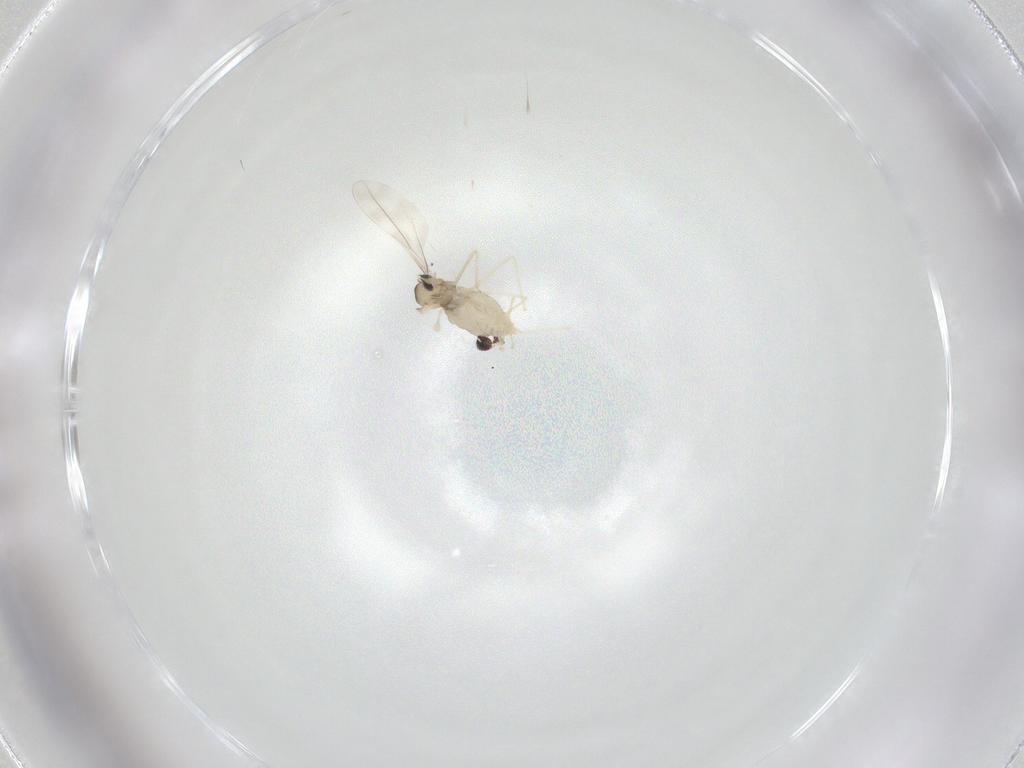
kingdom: Animalia
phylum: Arthropoda
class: Insecta
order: Diptera
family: Cecidomyiidae
